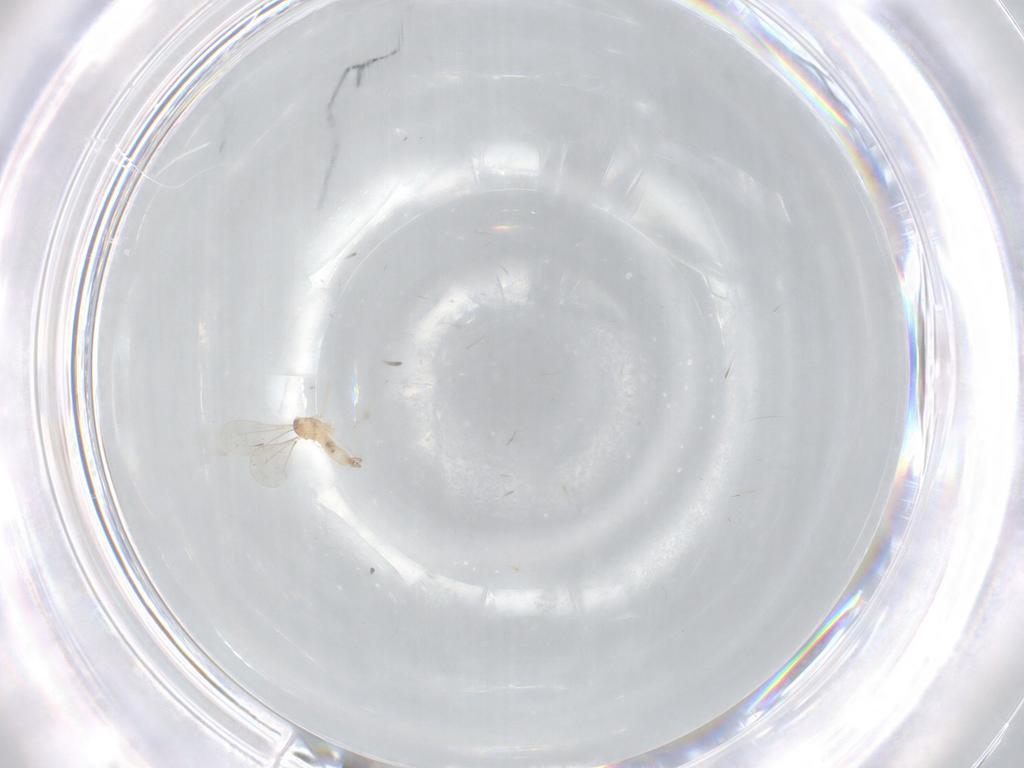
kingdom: Animalia
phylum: Arthropoda
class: Insecta
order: Diptera
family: Cecidomyiidae
